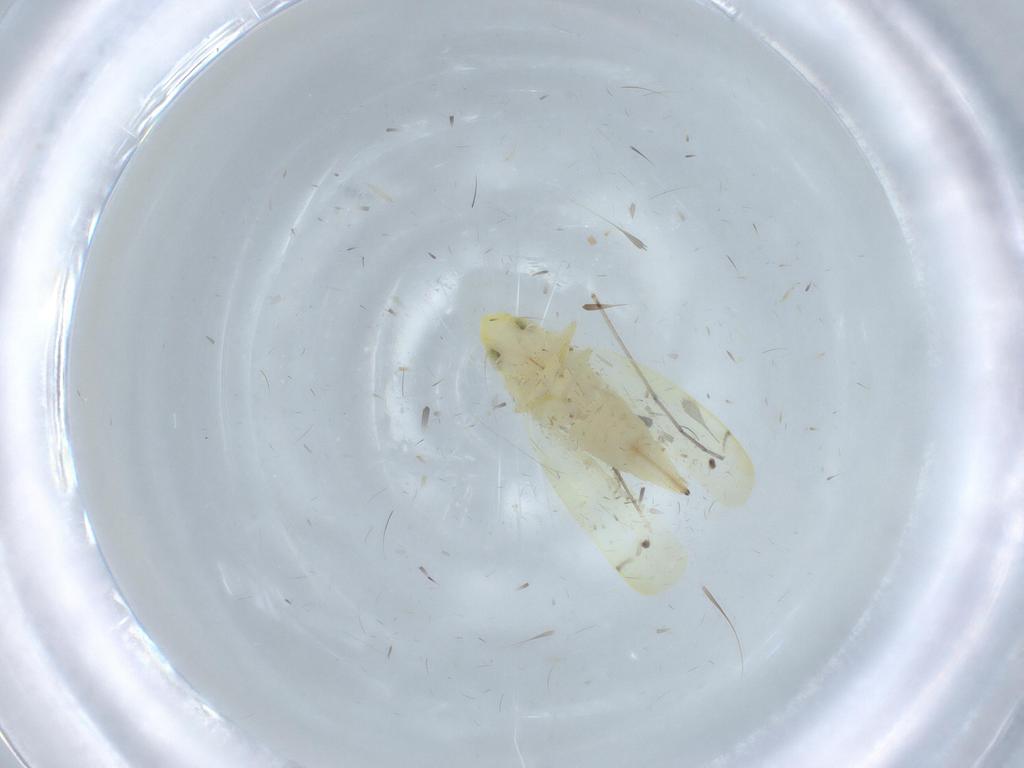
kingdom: Animalia
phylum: Arthropoda
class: Insecta
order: Hemiptera
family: Cicadellidae
